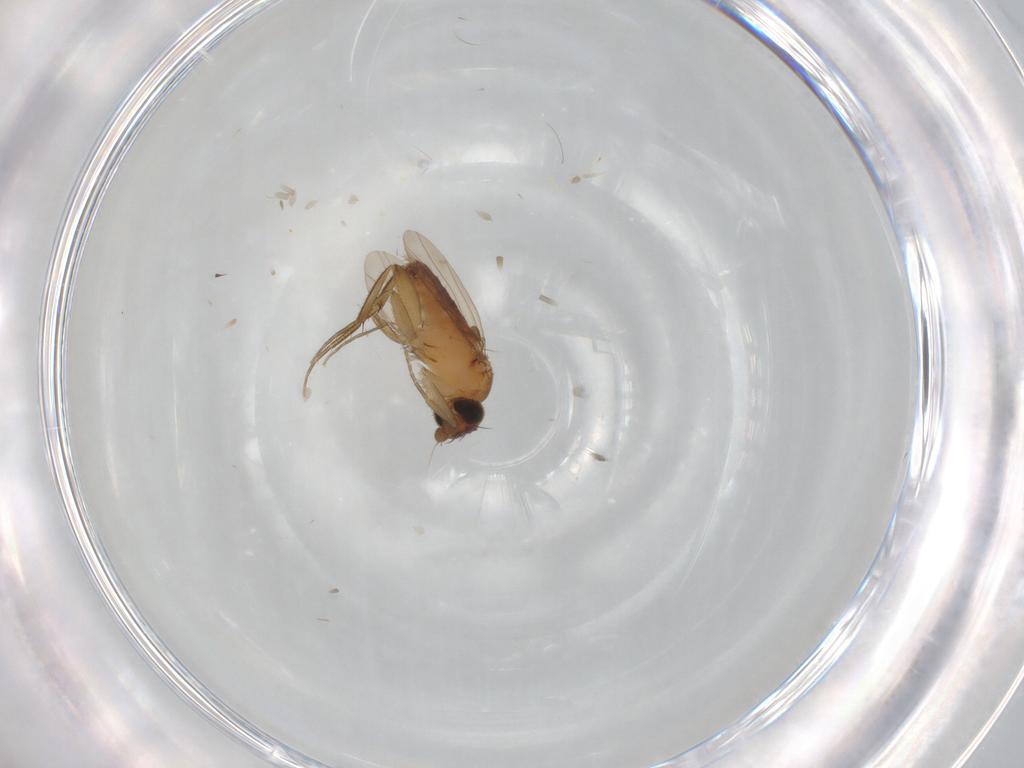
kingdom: Animalia
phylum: Arthropoda
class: Insecta
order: Diptera
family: Phoridae
